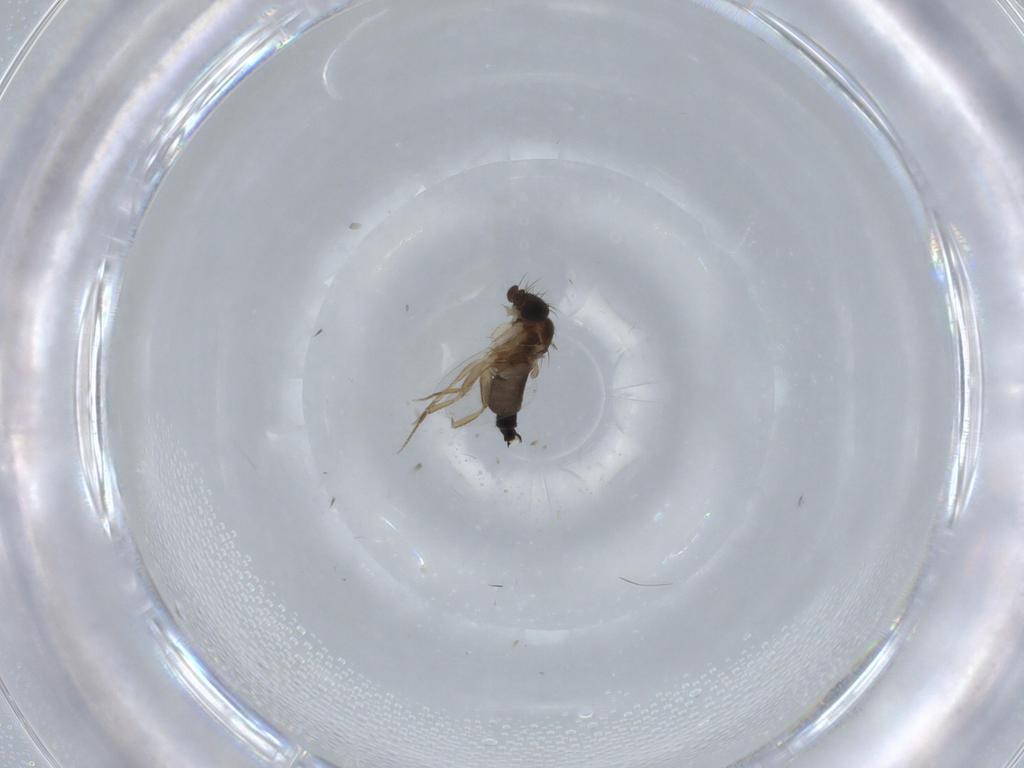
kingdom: Animalia
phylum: Arthropoda
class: Insecta
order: Diptera
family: Phoridae
